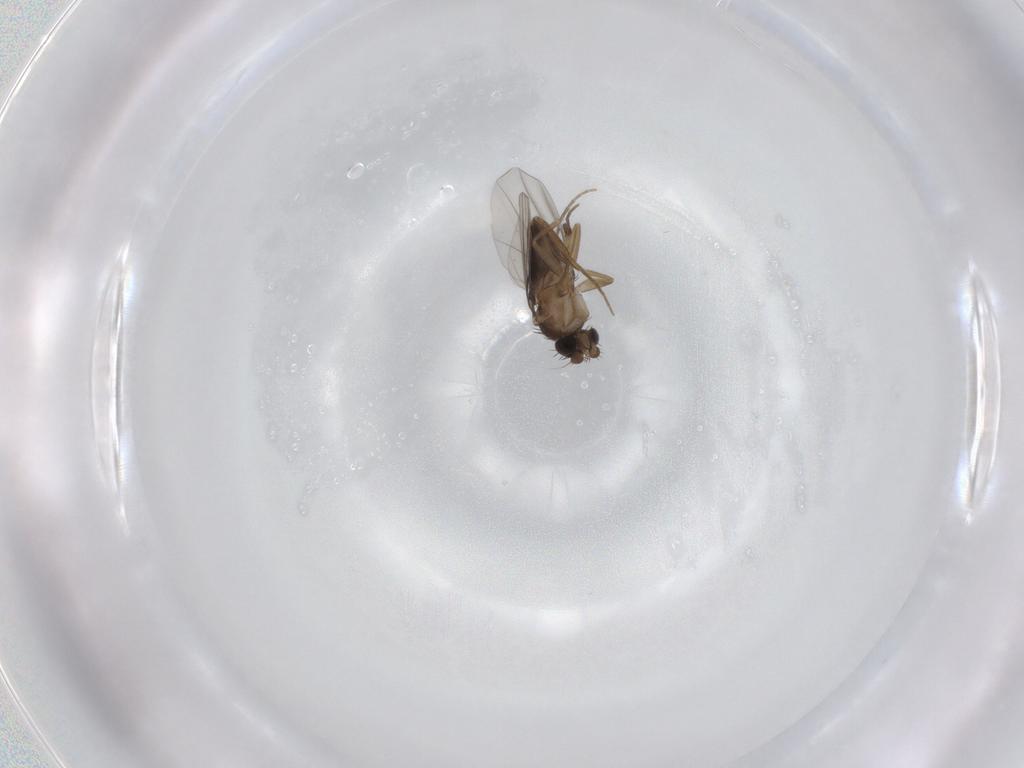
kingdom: Animalia
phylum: Arthropoda
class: Insecta
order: Diptera
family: Phoridae
